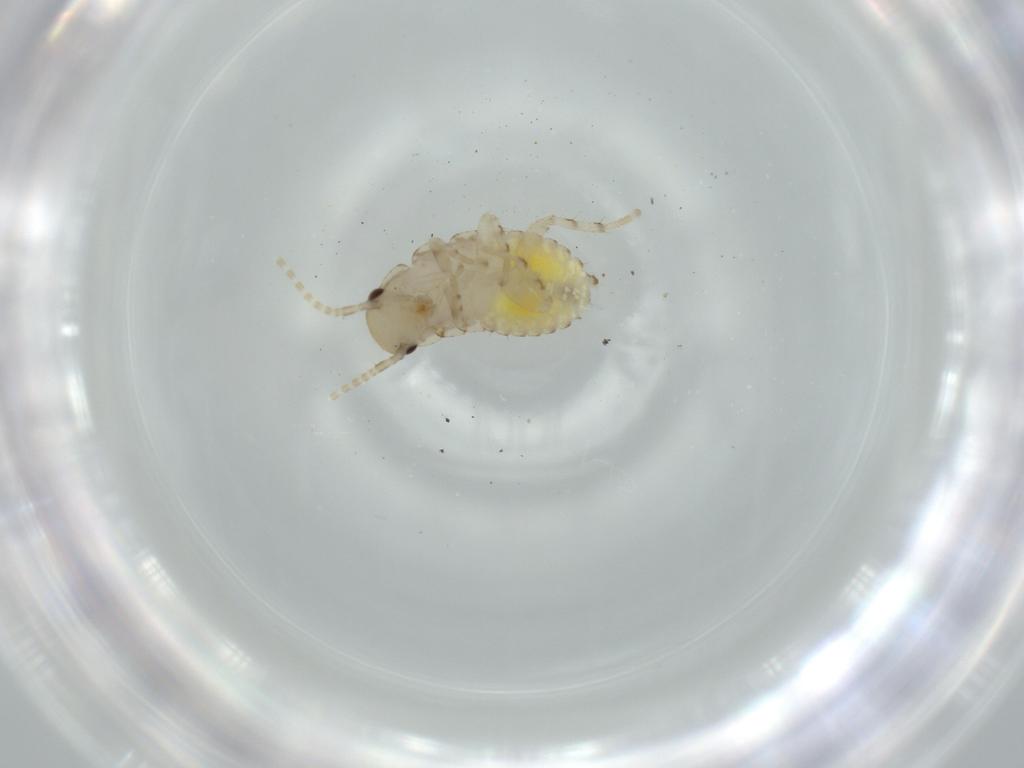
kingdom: Animalia
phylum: Arthropoda
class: Insecta
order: Blattodea
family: Ectobiidae
